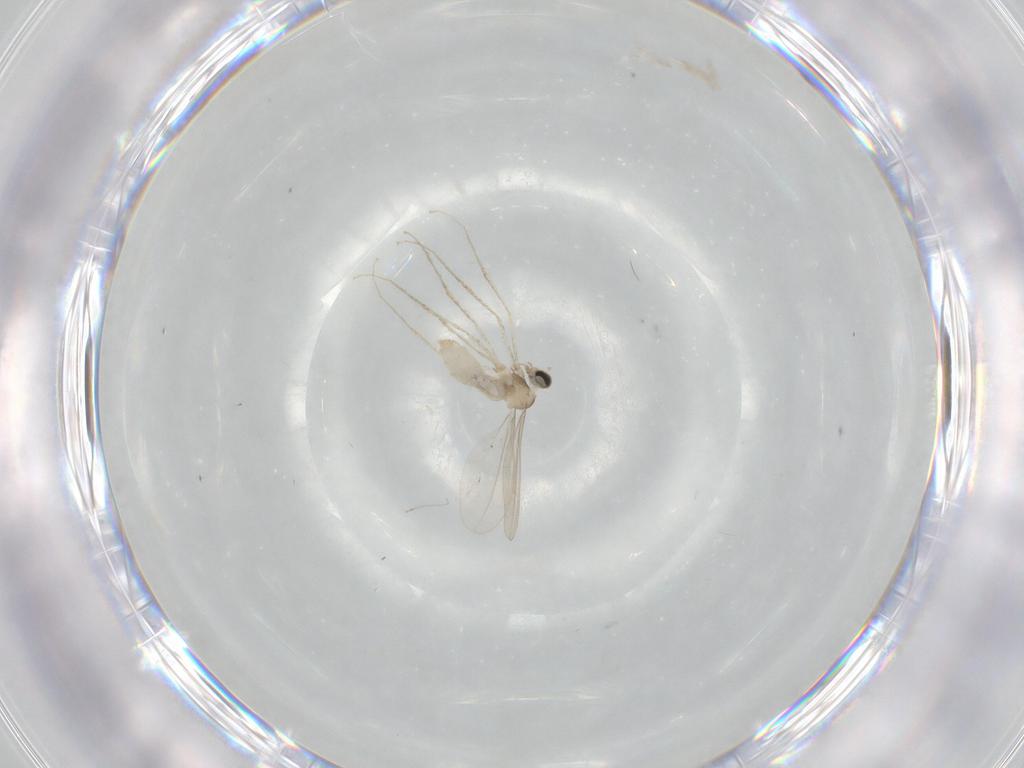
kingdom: Animalia
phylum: Arthropoda
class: Insecta
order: Diptera
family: Cecidomyiidae
